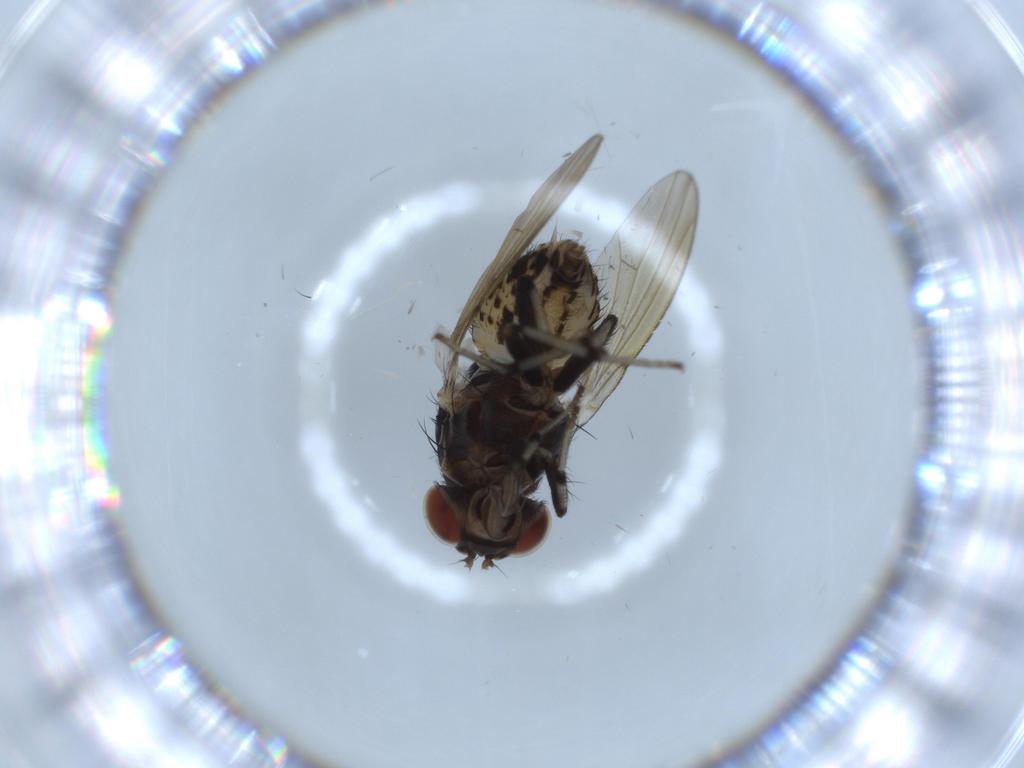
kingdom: Animalia
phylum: Arthropoda
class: Insecta
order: Diptera
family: Lauxaniidae
